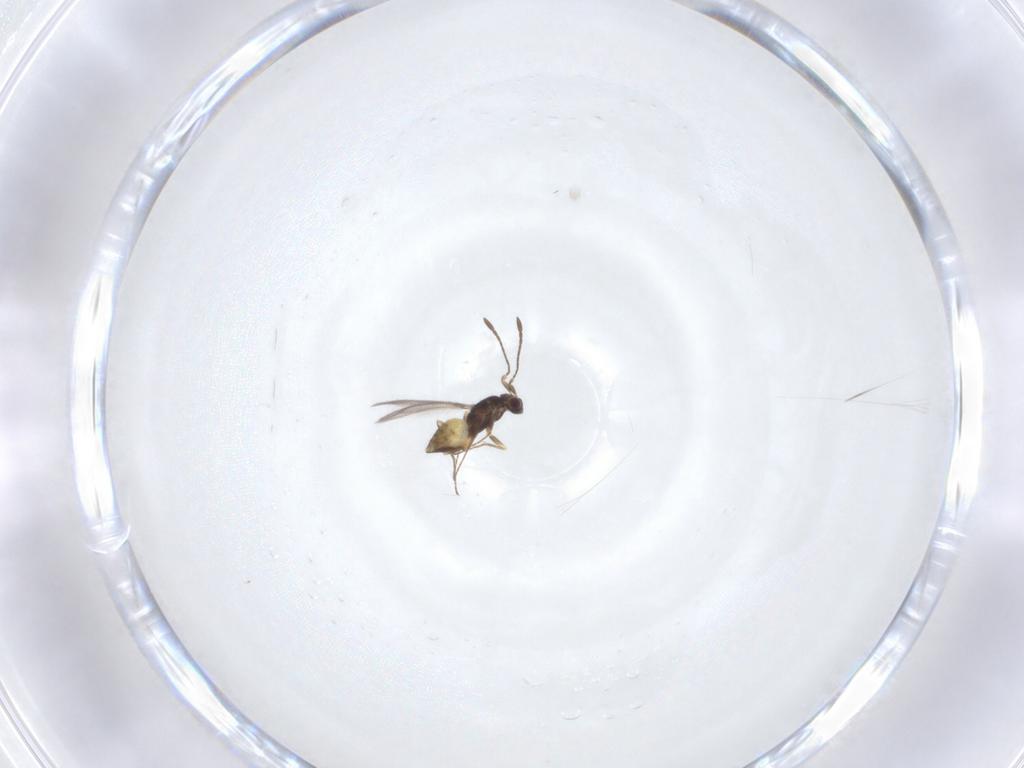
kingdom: Animalia
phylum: Arthropoda
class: Insecta
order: Hymenoptera
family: Mymaridae
